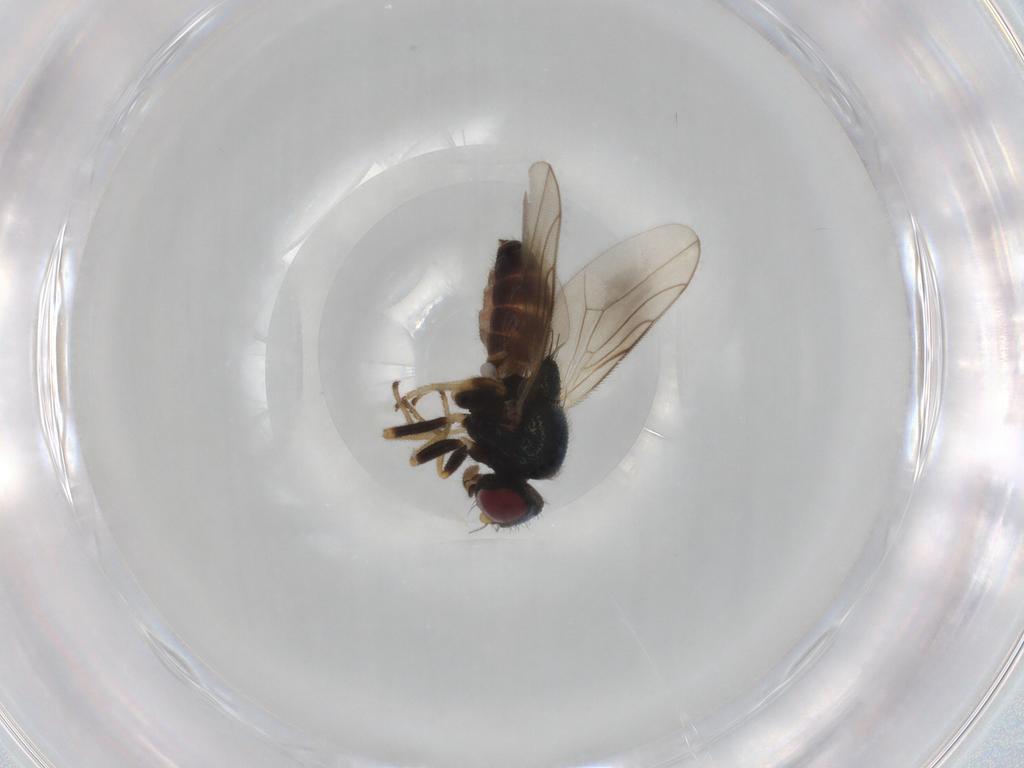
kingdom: Animalia
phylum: Arthropoda
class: Insecta
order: Diptera
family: Chloropidae
